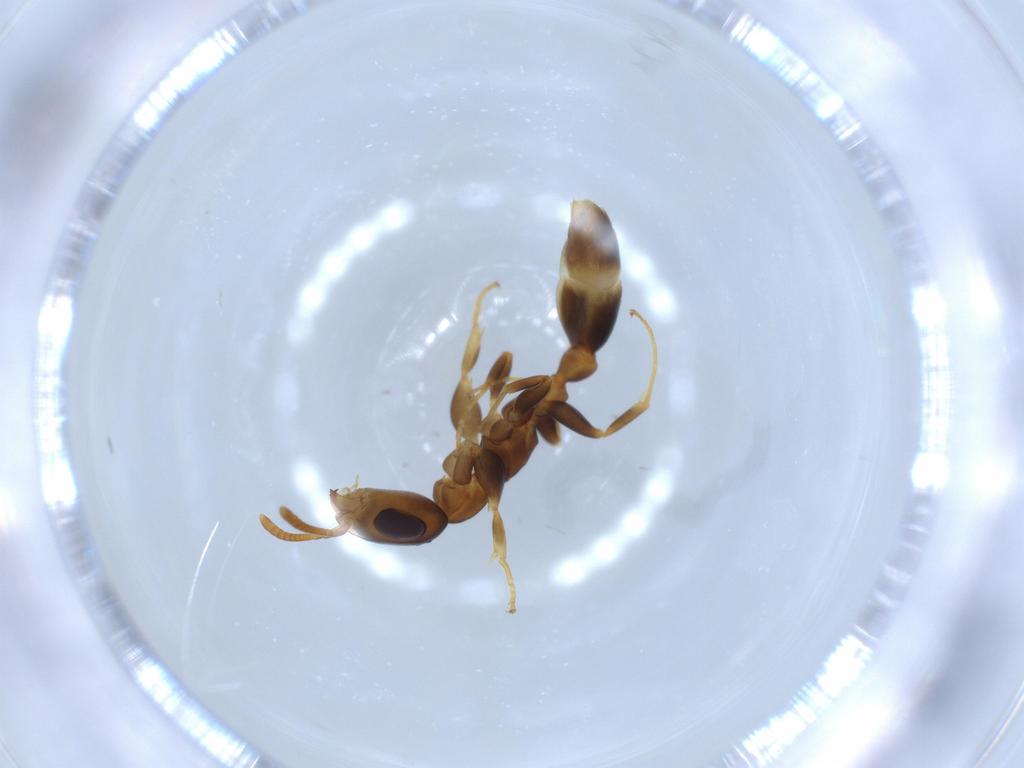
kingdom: Animalia
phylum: Arthropoda
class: Insecta
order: Hymenoptera
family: Formicidae
